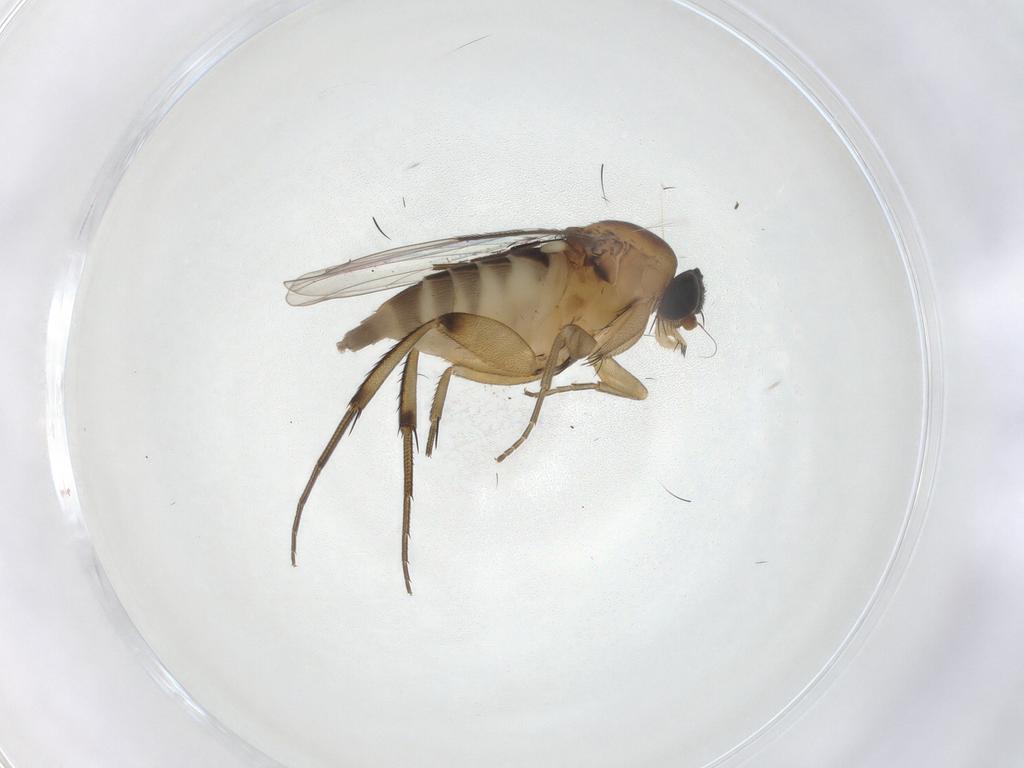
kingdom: Animalia
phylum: Arthropoda
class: Insecta
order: Diptera
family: Phoridae
